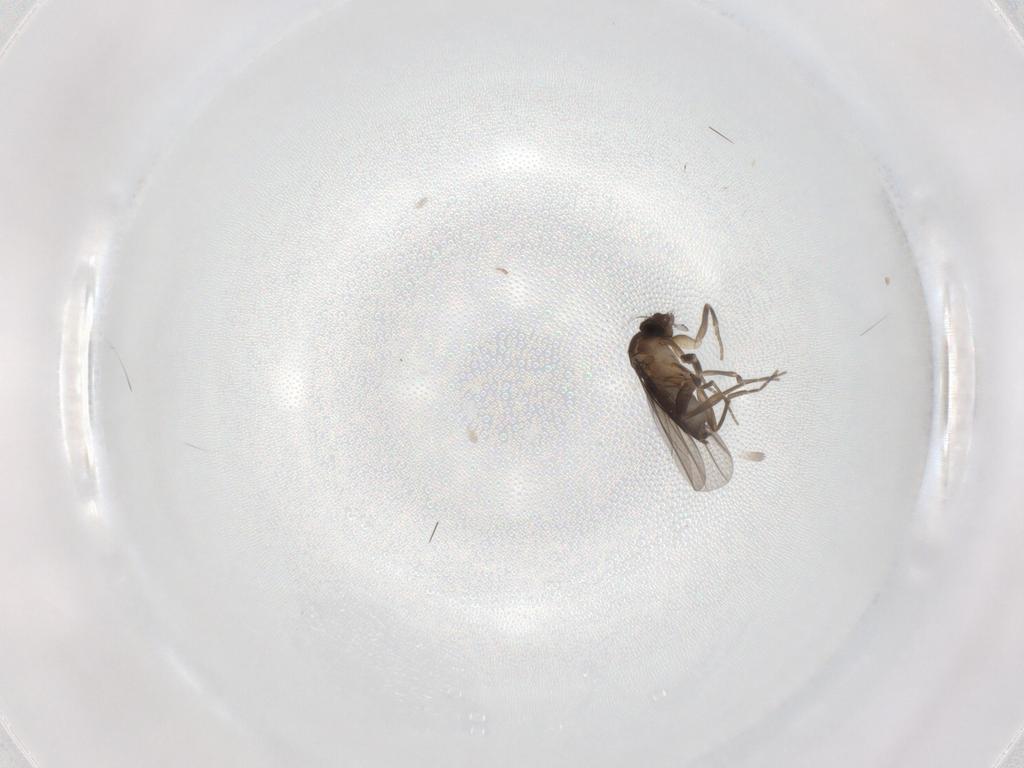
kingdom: Animalia
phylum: Arthropoda
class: Insecta
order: Diptera
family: Phoridae
